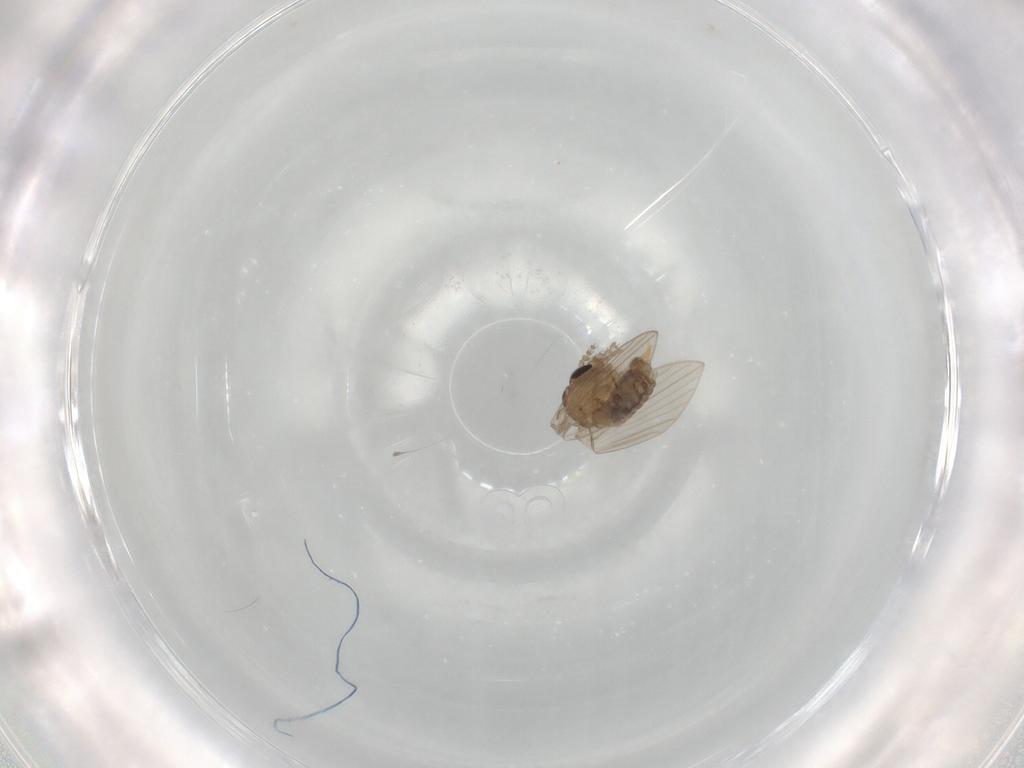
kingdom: Animalia
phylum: Arthropoda
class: Insecta
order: Diptera
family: Psychodidae
